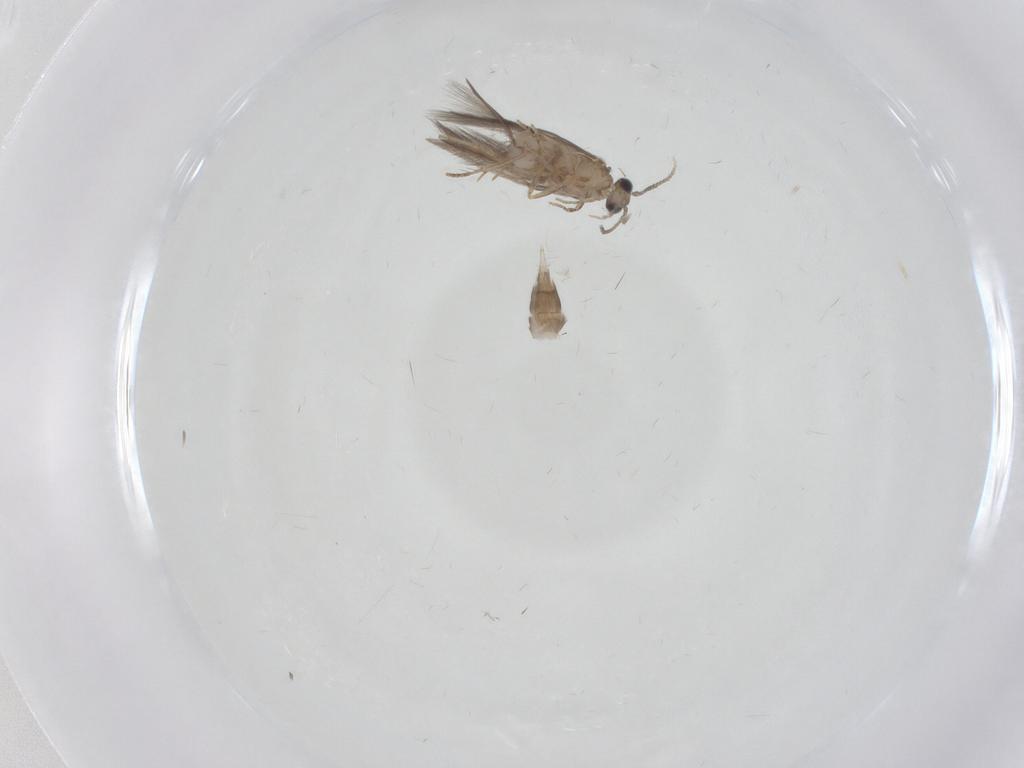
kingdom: Animalia
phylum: Arthropoda
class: Insecta
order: Trichoptera
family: Hydroptilidae
